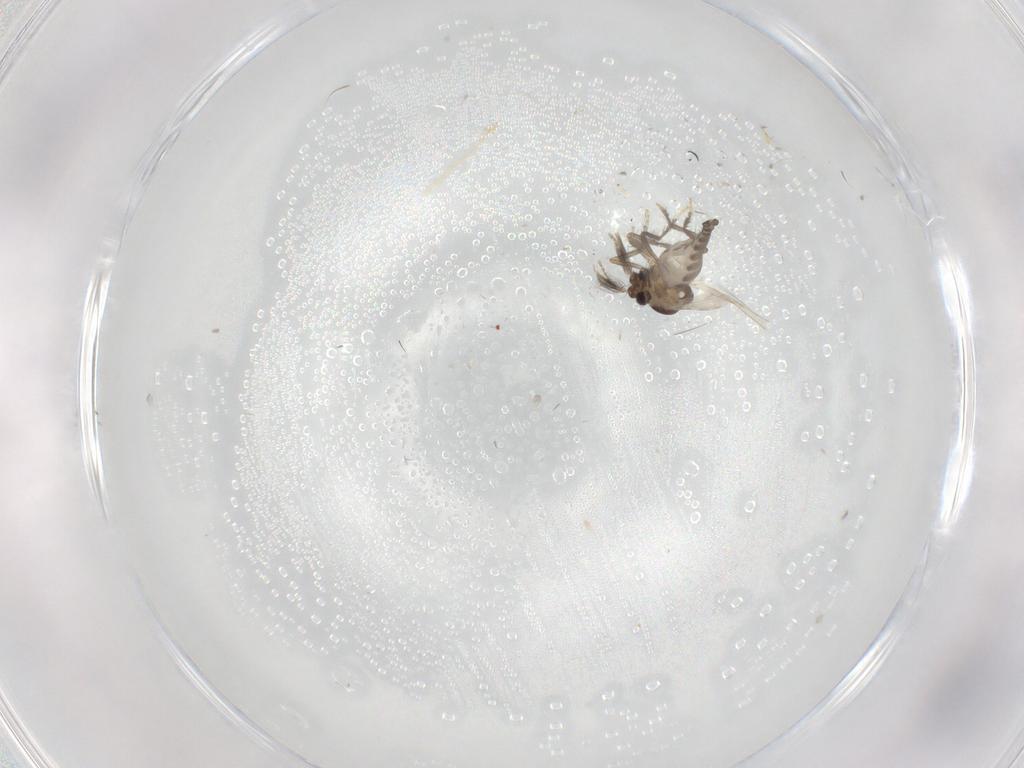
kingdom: Animalia
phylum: Arthropoda
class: Insecta
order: Diptera
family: Ceratopogonidae
